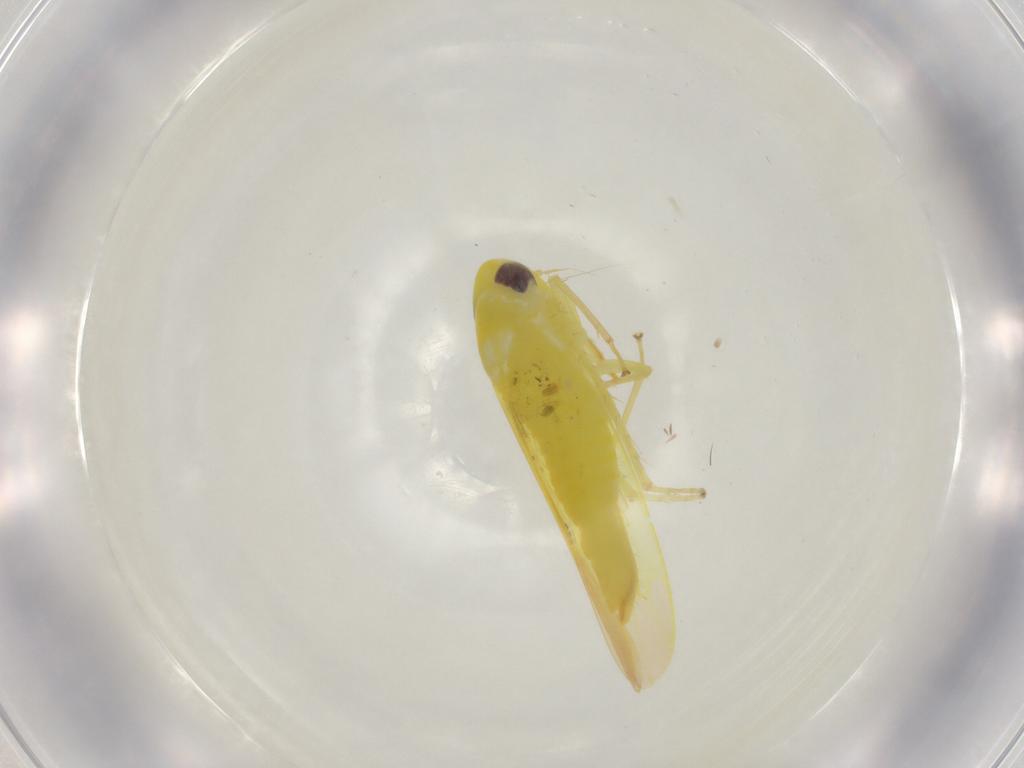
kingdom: Animalia
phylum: Arthropoda
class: Insecta
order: Hemiptera
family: Cicadellidae
